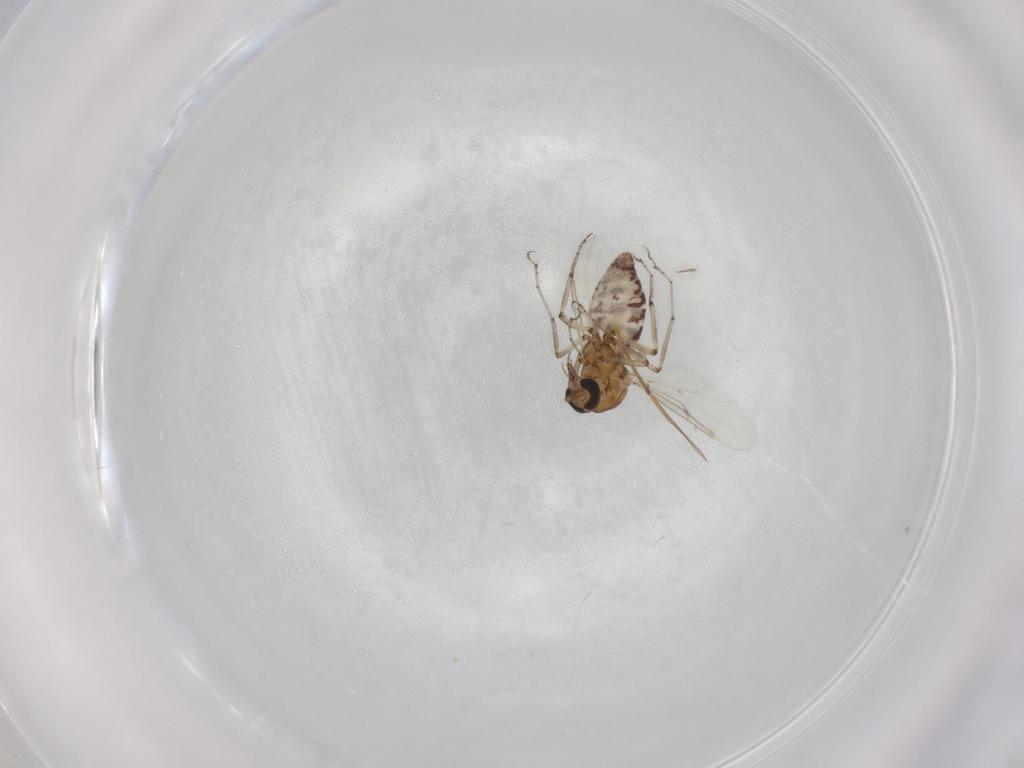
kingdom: Animalia
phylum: Arthropoda
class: Insecta
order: Diptera
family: Ceratopogonidae
